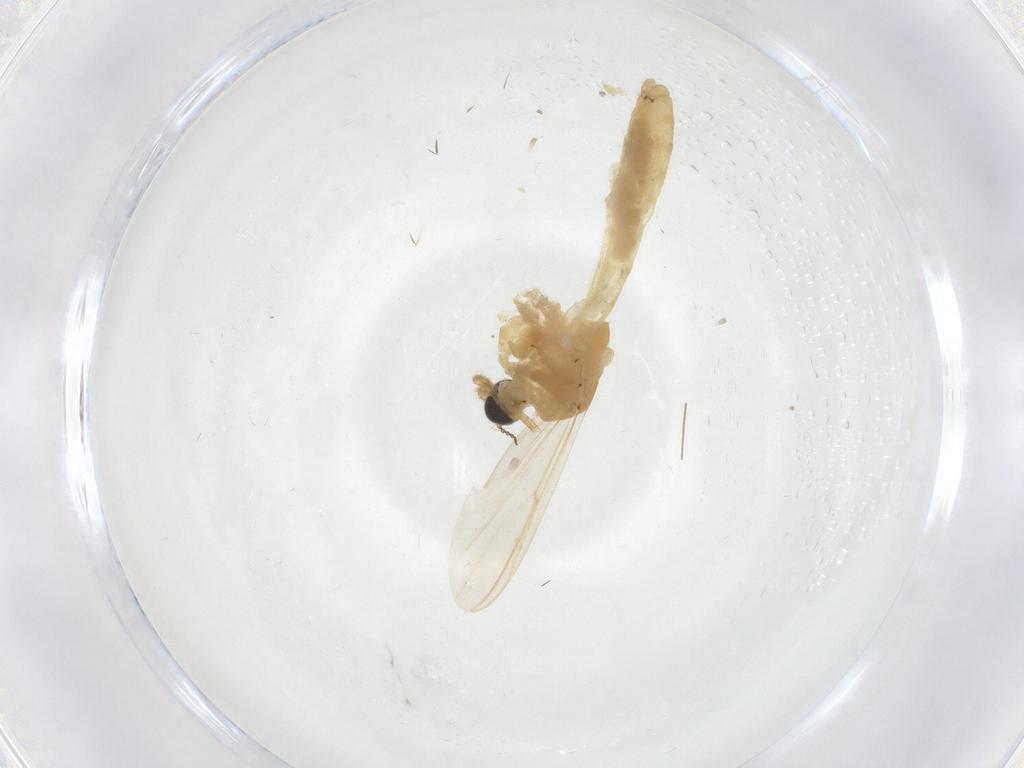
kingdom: Animalia
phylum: Arthropoda
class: Insecta
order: Diptera
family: Chironomidae
